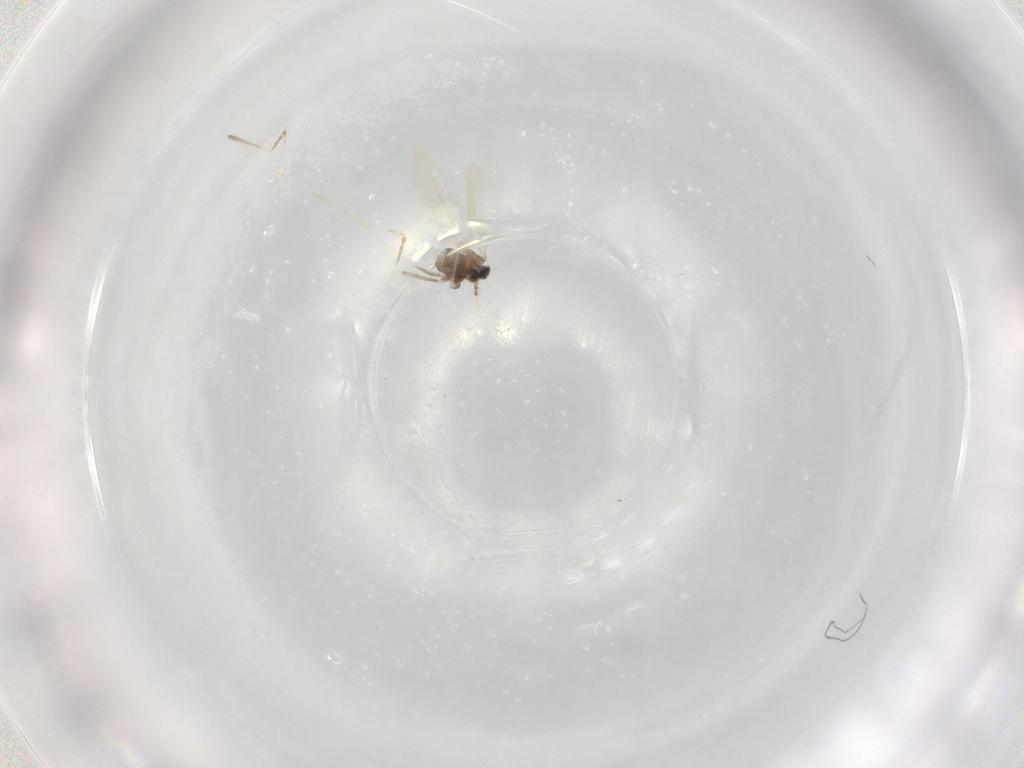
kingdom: Animalia
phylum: Arthropoda
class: Insecta
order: Diptera
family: Cecidomyiidae
